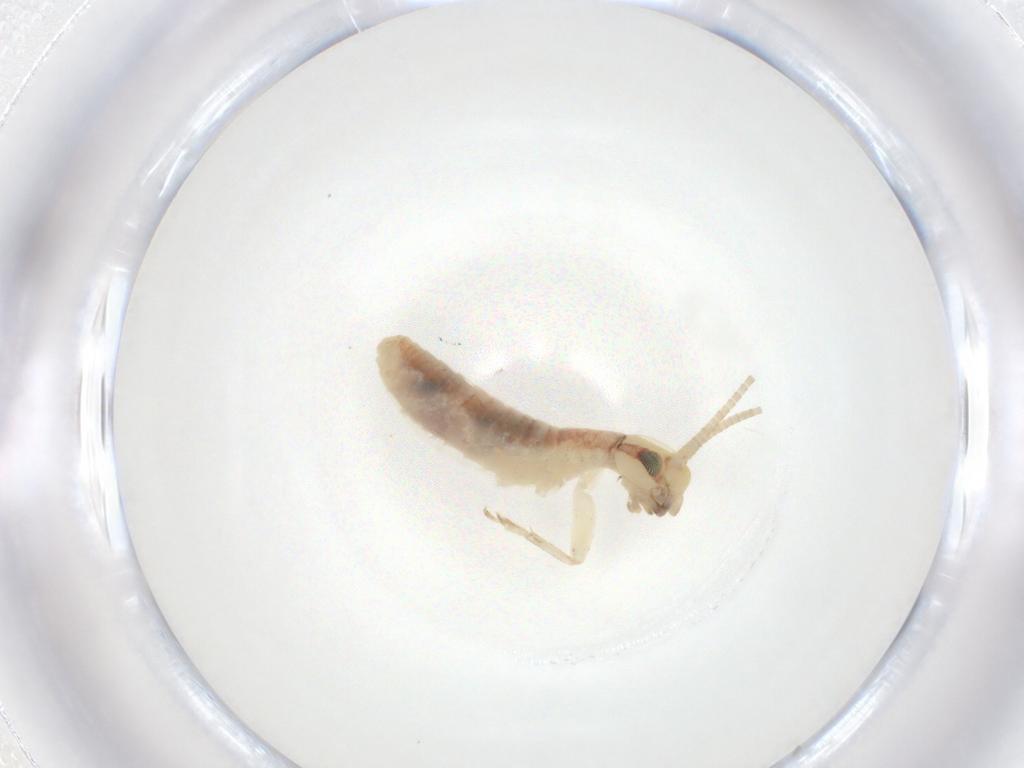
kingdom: Animalia
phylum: Arthropoda
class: Insecta
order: Orthoptera
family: Gryllidae
